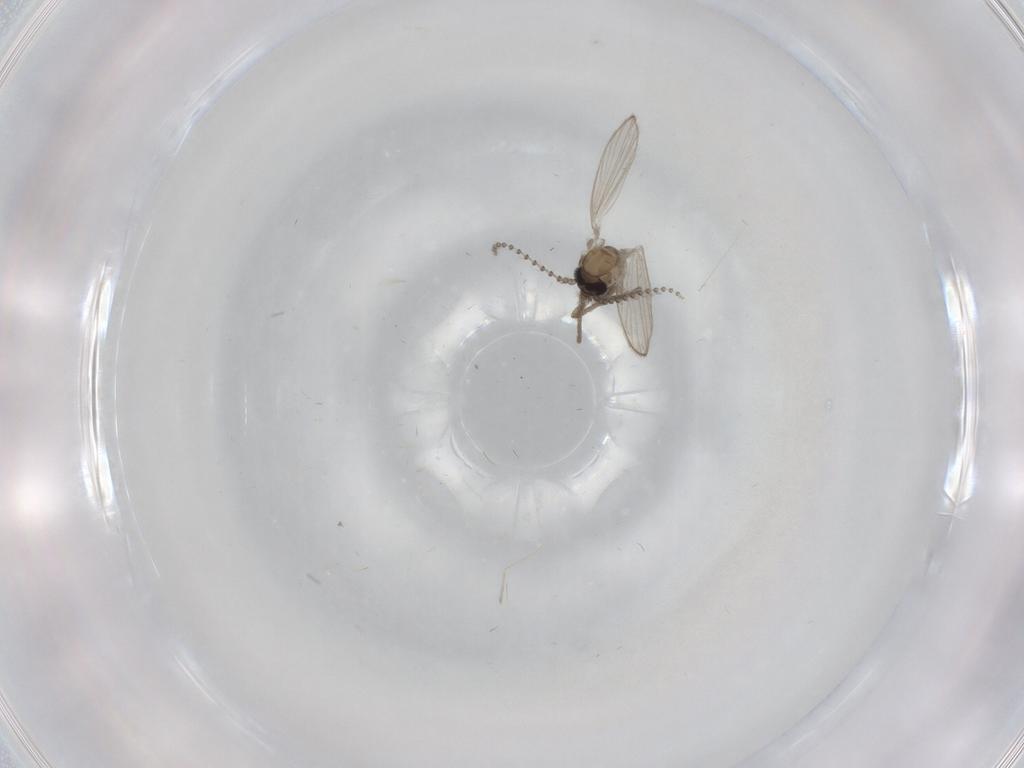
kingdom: Animalia
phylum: Arthropoda
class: Insecta
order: Diptera
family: Psychodidae
